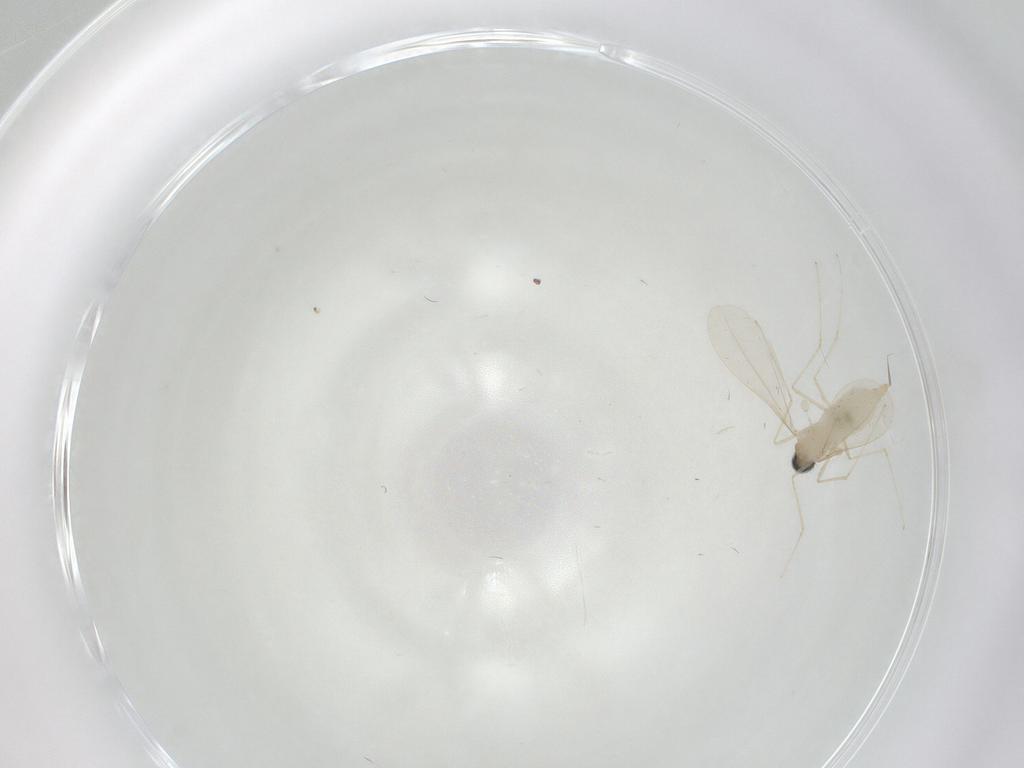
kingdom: Animalia
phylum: Arthropoda
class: Insecta
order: Diptera
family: Cecidomyiidae
